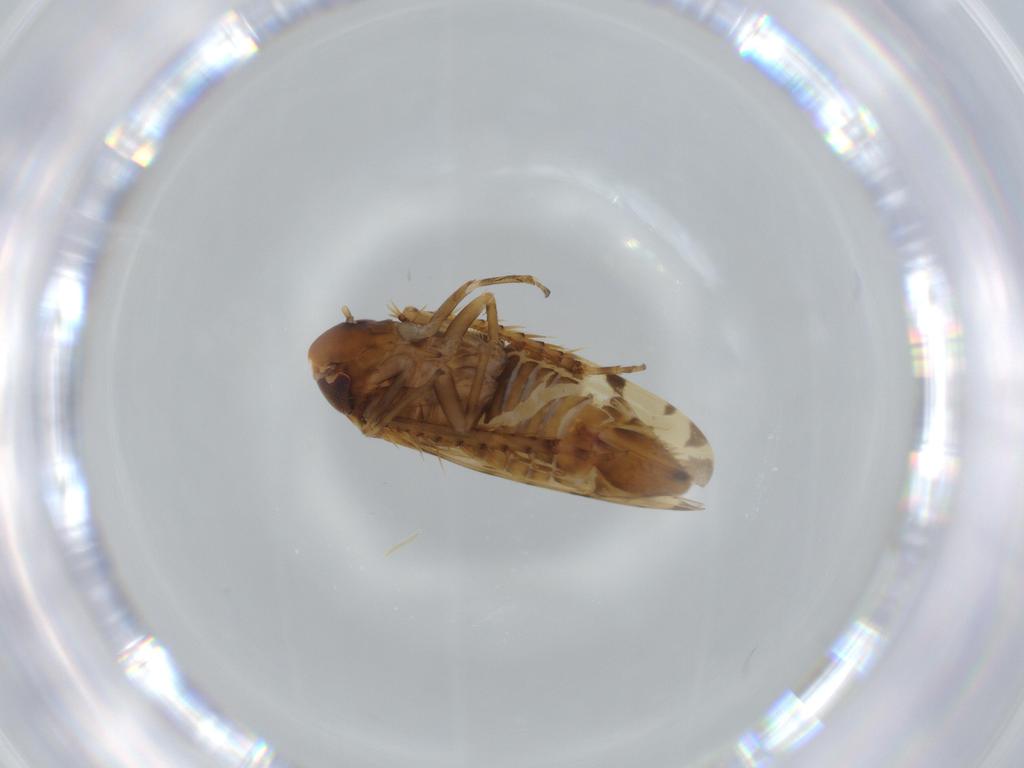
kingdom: Animalia
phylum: Arthropoda
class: Insecta
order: Hemiptera
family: Cicadellidae
